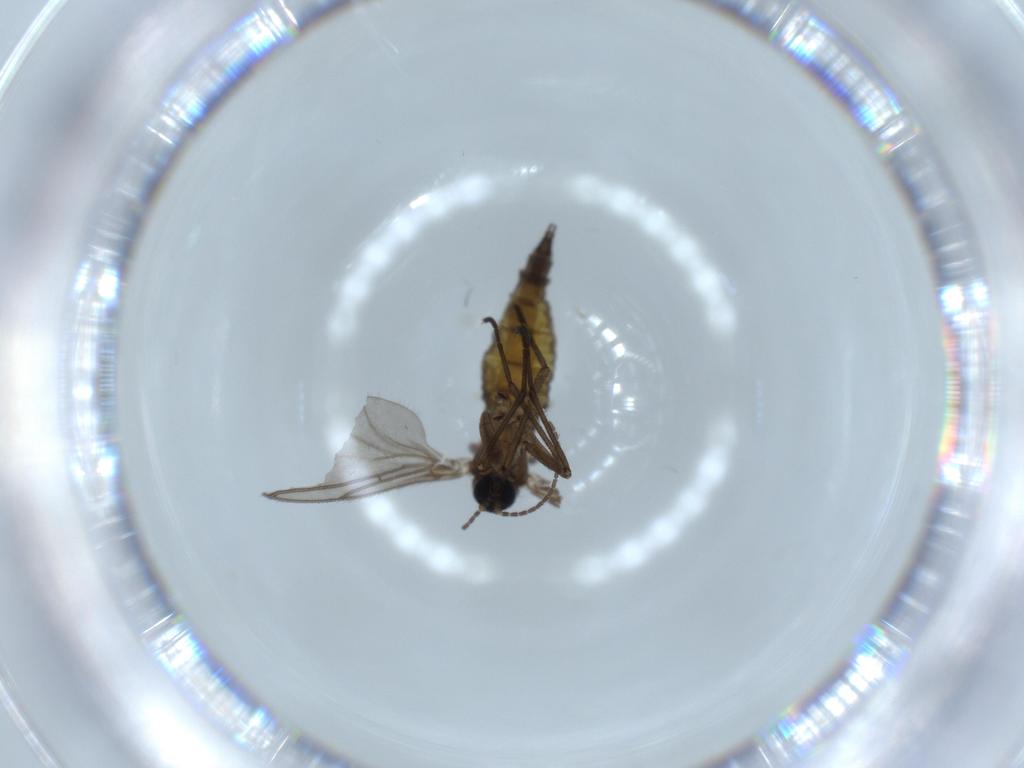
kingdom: Animalia
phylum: Arthropoda
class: Insecta
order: Diptera
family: Sciaridae
